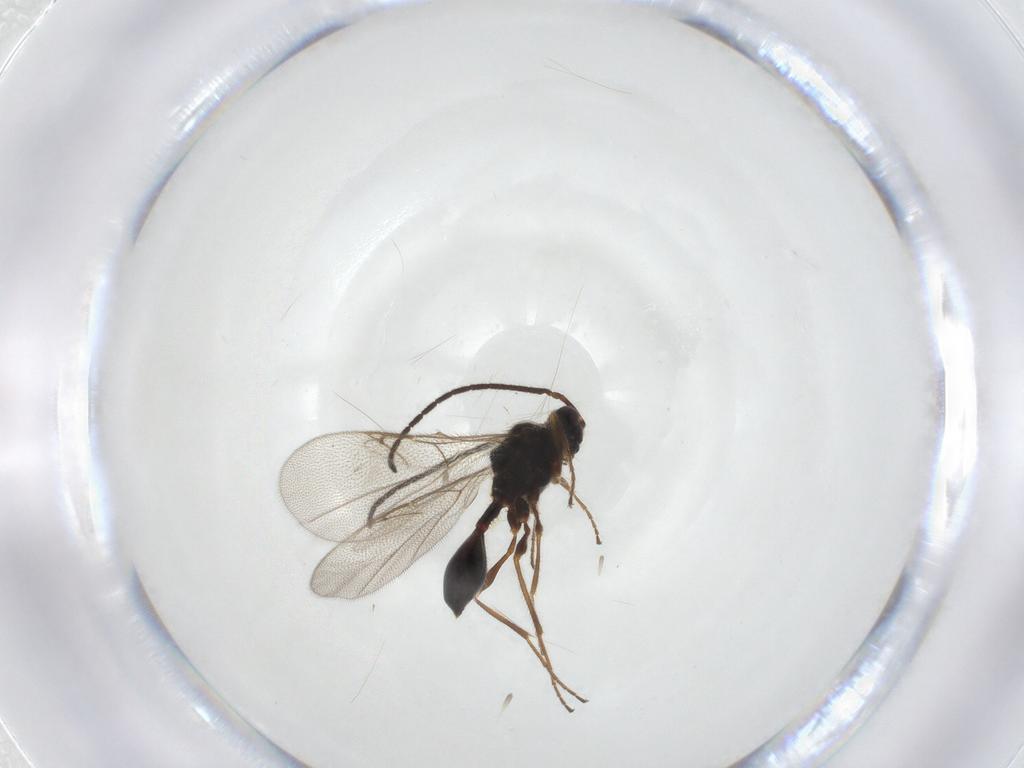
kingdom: Animalia
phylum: Arthropoda
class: Insecta
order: Hymenoptera
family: Diapriidae
